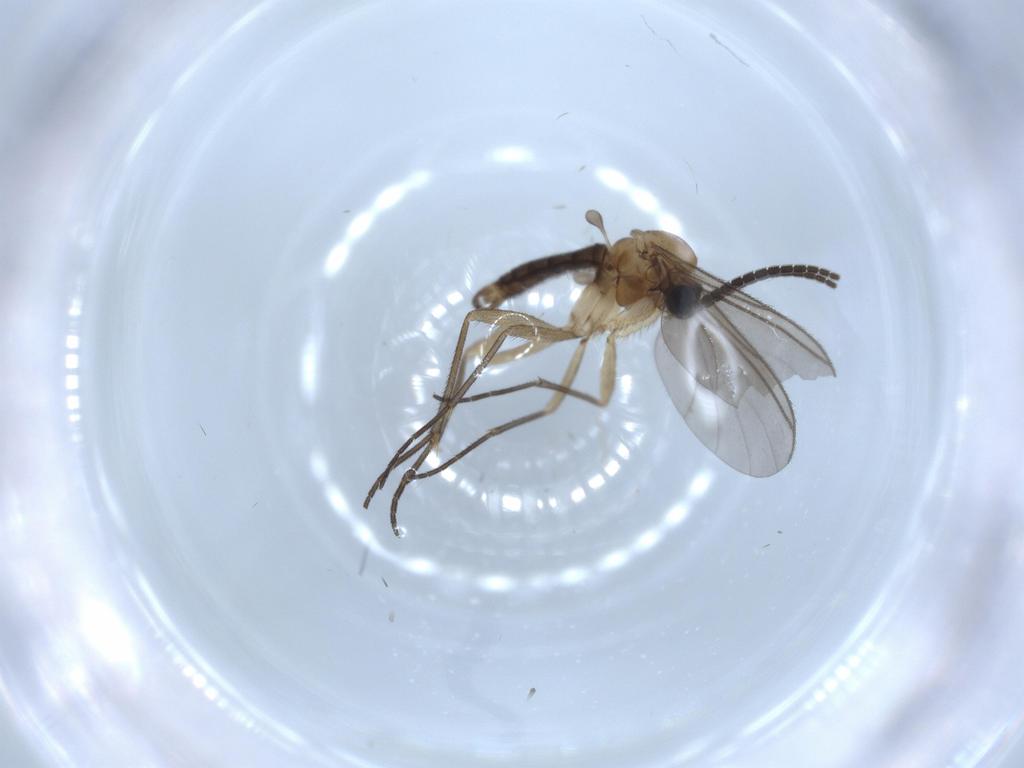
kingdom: Animalia
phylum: Arthropoda
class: Insecta
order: Diptera
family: Sciaridae
